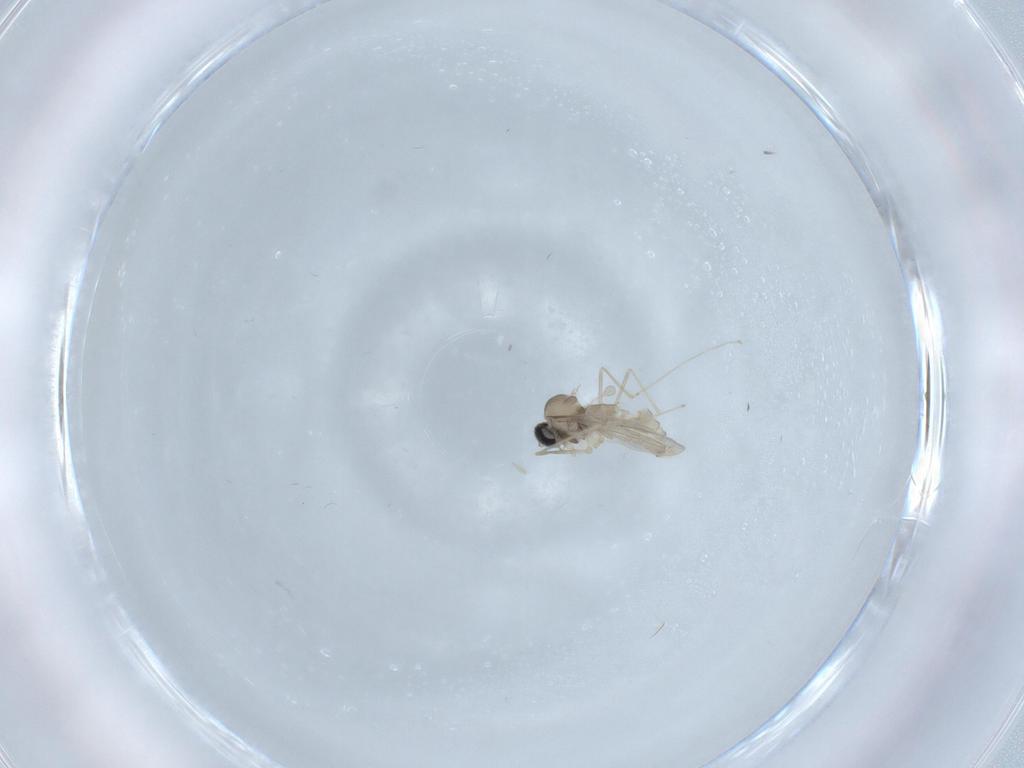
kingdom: Animalia
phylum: Arthropoda
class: Insecta
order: Diptera
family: Cecidomyiidae
